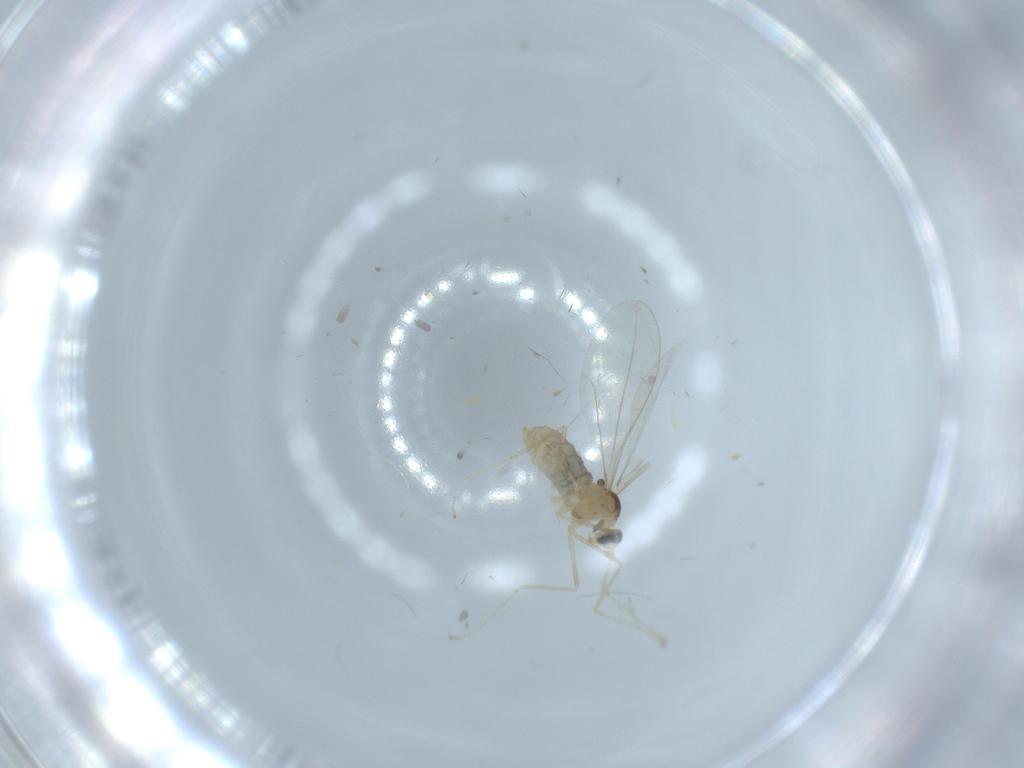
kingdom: Animalia
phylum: Arthropoda
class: Insecta
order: Diptera
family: Cecidomyiidae
